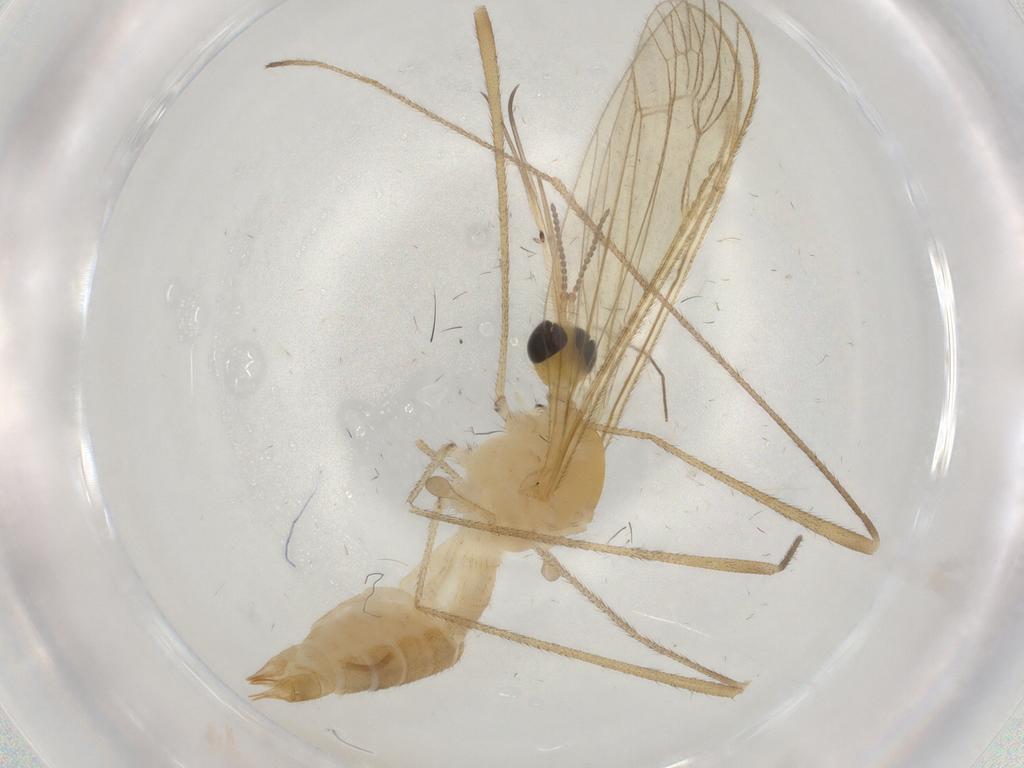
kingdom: Animalia
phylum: Arthropoda
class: Insecta
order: Diptera
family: Limoniidae
